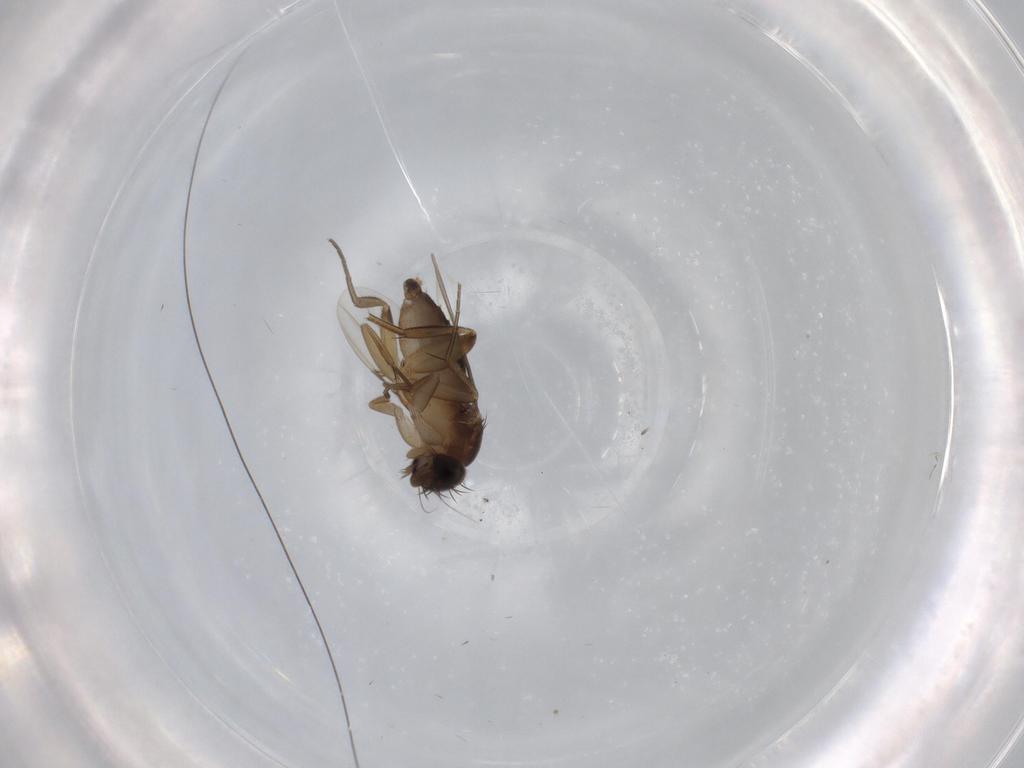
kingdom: Animalia
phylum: Arthropoda
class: Insecta
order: Diptera
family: Phoridae
